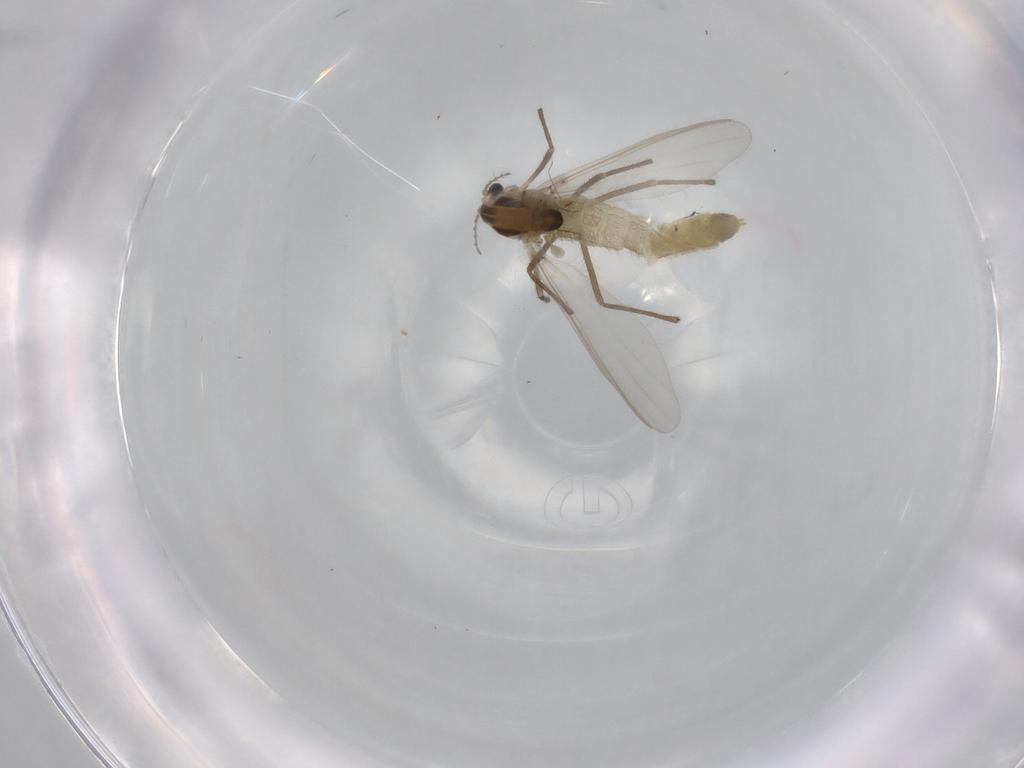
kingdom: Animalia
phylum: Arthropoda
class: Insecta
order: Diptera
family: Chironomidae
